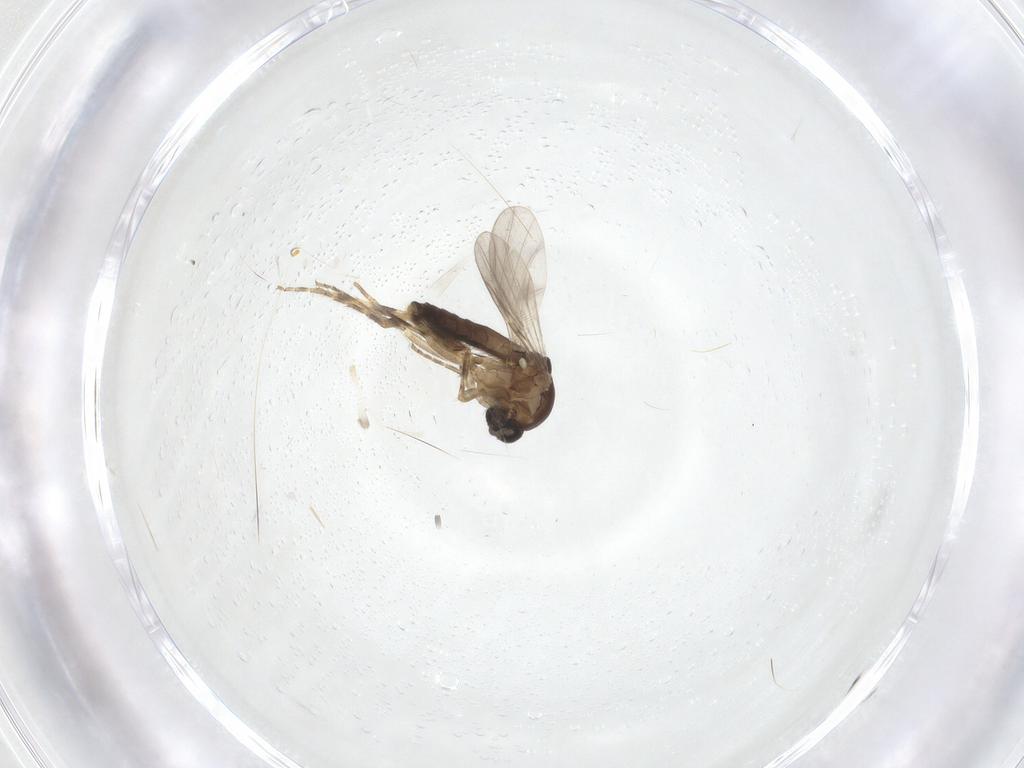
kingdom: Animalia
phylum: Arthropoda
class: Insecta
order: Diptera
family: Ceratopogonidae
